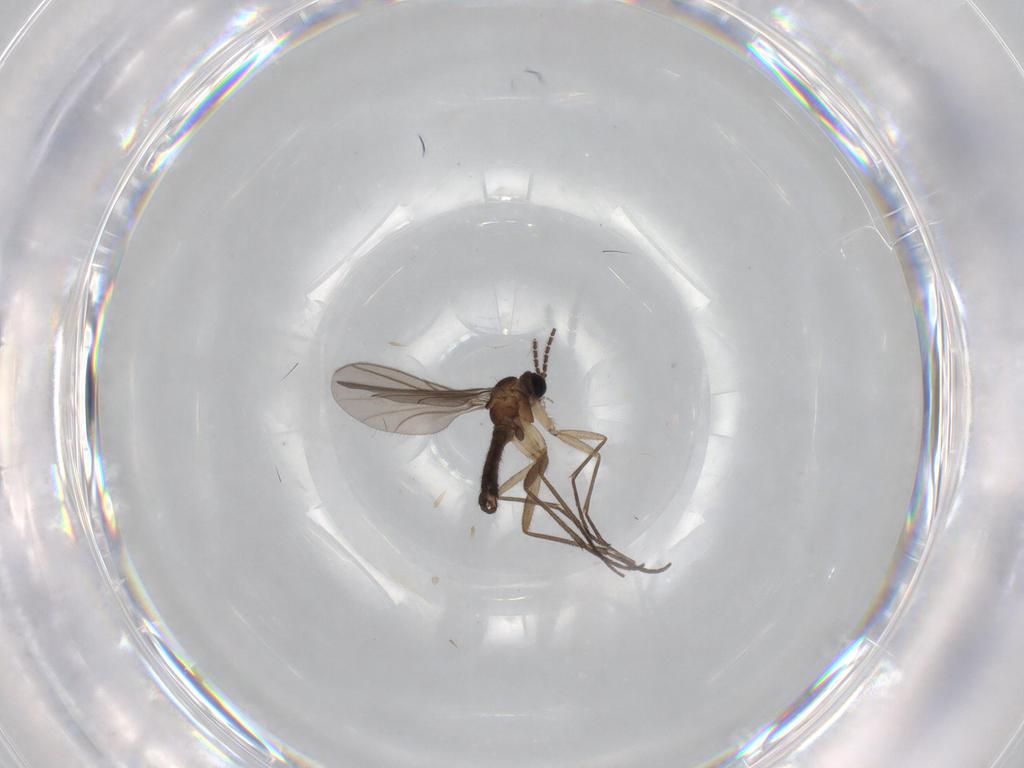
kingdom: Animalia
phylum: Arthropoda
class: Insecta
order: Diptera
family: Sciaridae
